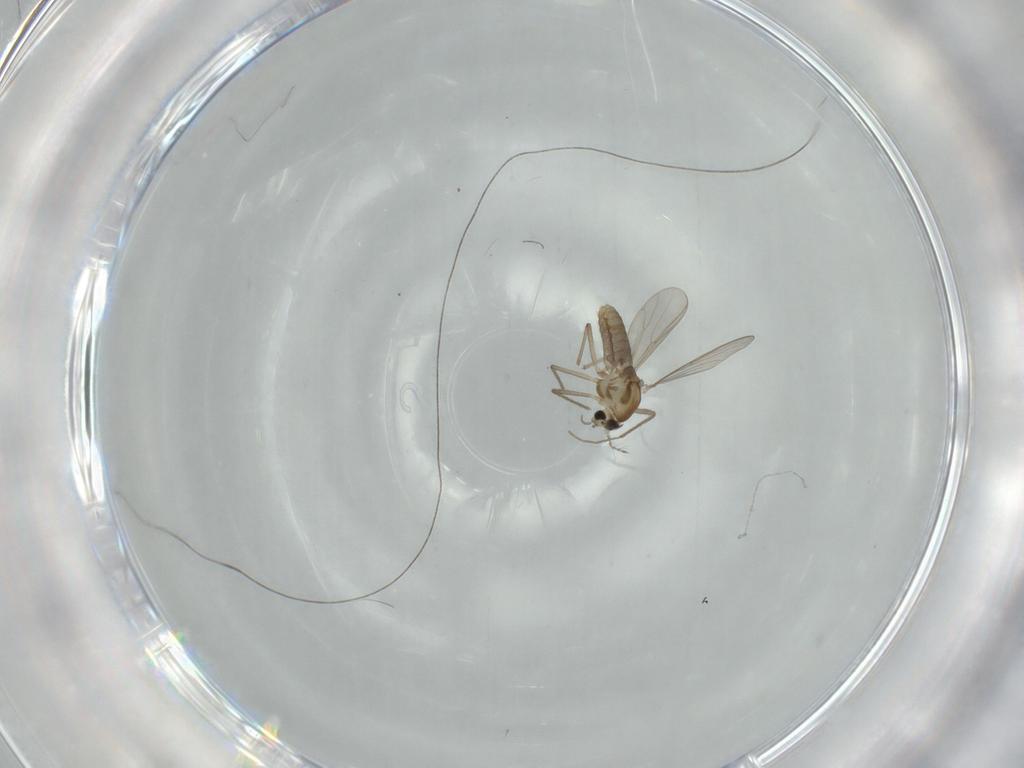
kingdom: Animalia
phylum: Arthropoda
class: Insecta
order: Diptera
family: Chironomidae
